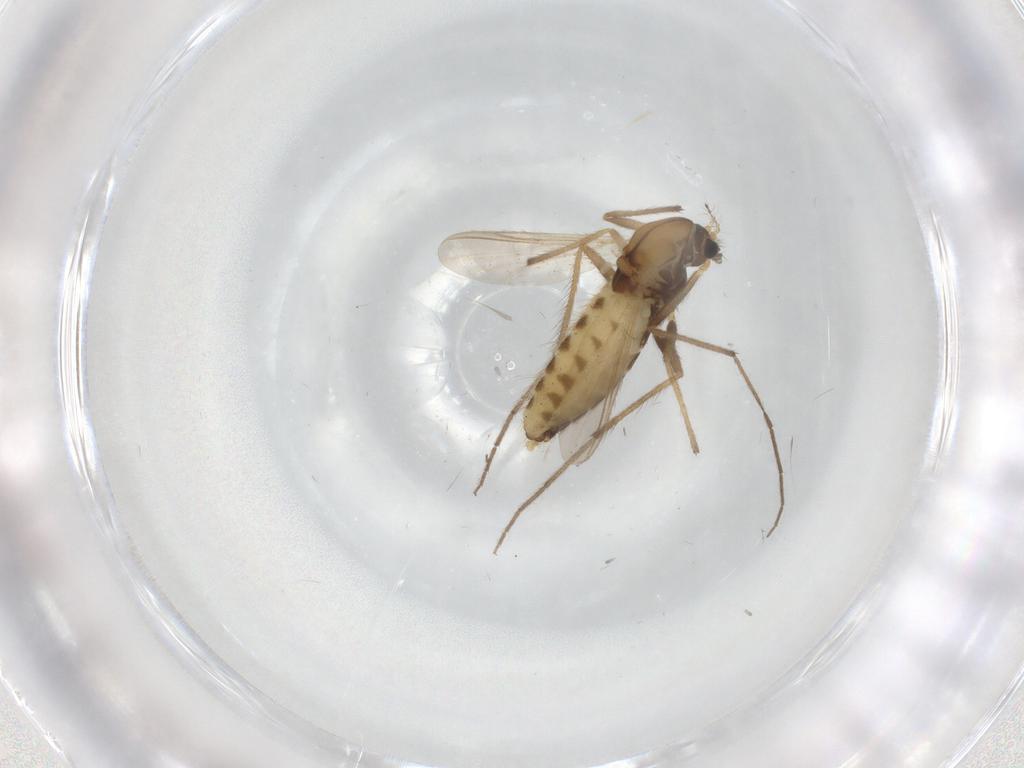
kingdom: Animalia
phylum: Arthropoda
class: Insecta
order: Diptera
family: Chironomidae
